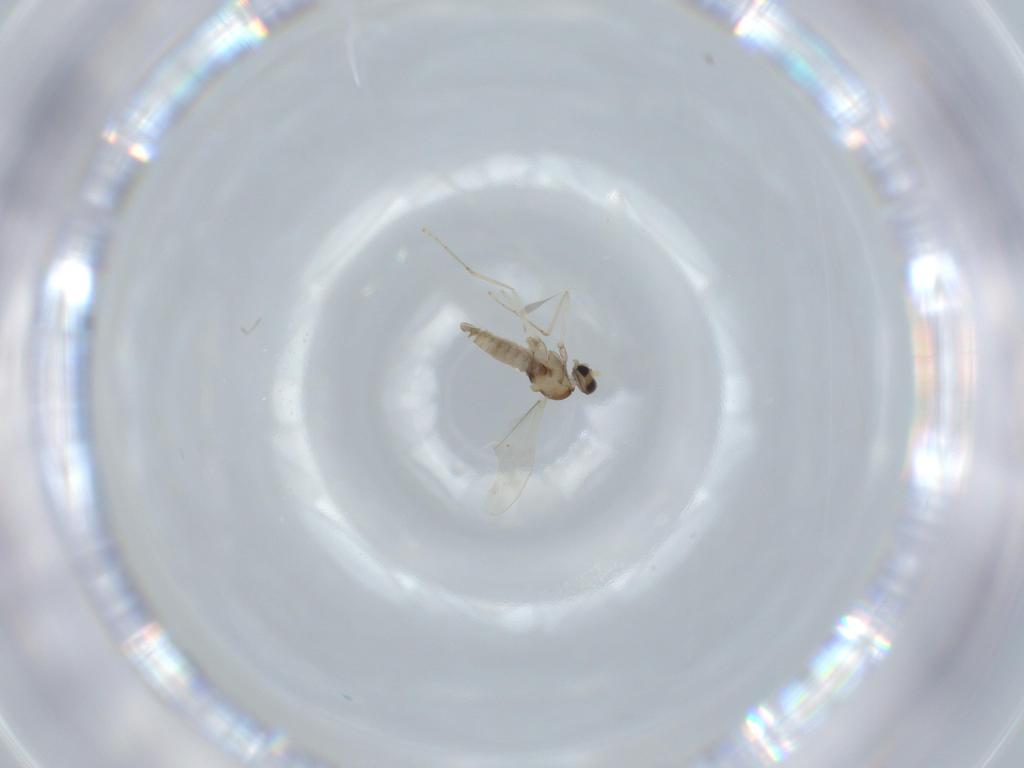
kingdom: Animalia
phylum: Arthropoda
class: Insecta
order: Diptera
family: Cecidomyiidae
